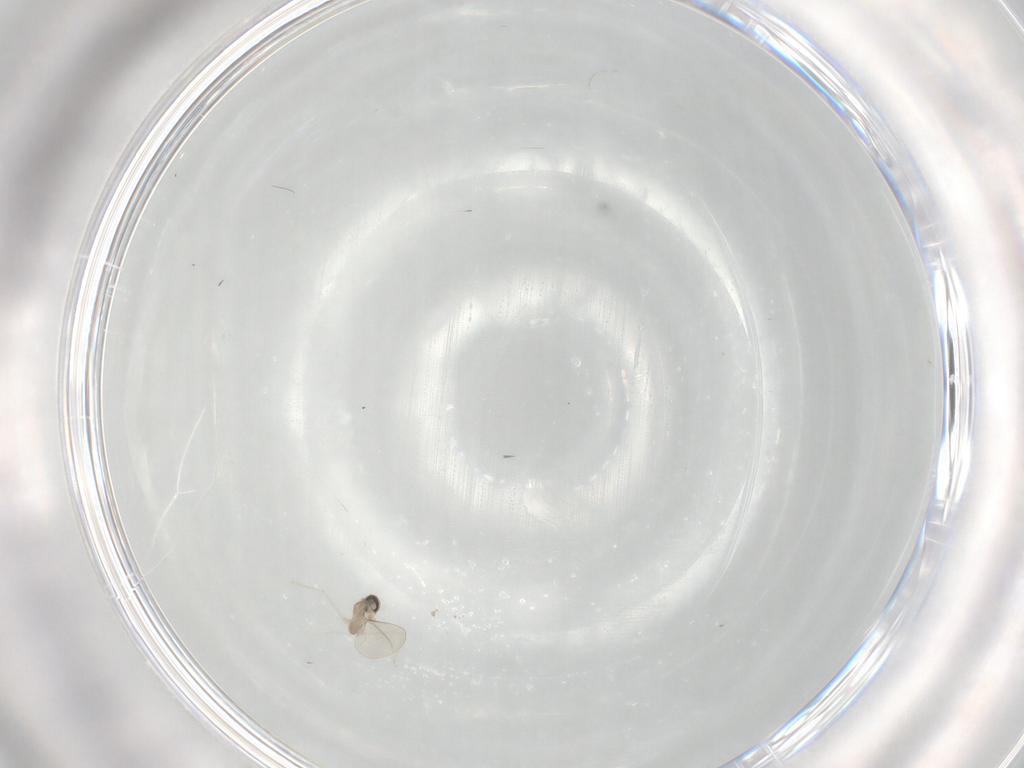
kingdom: Animalia
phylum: Arthropoda
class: Insecta
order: Diptera
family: Cecidomyiidae
